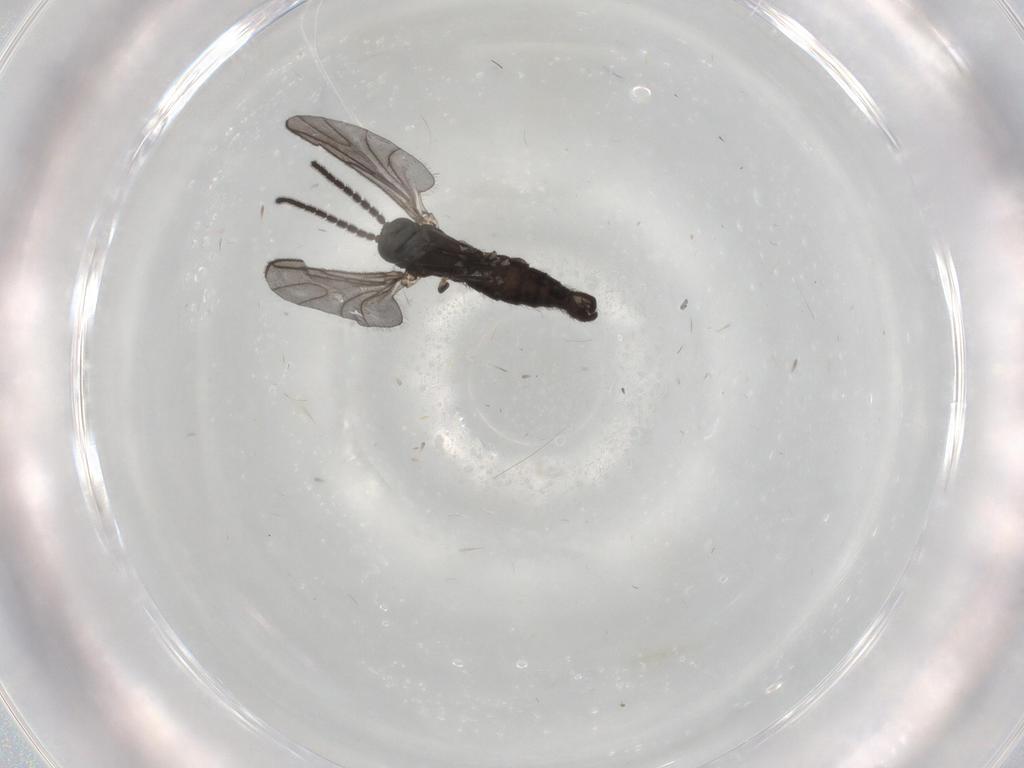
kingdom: Animalia
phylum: Arthropoda
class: Insecta
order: Diptera
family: Sciaridae
